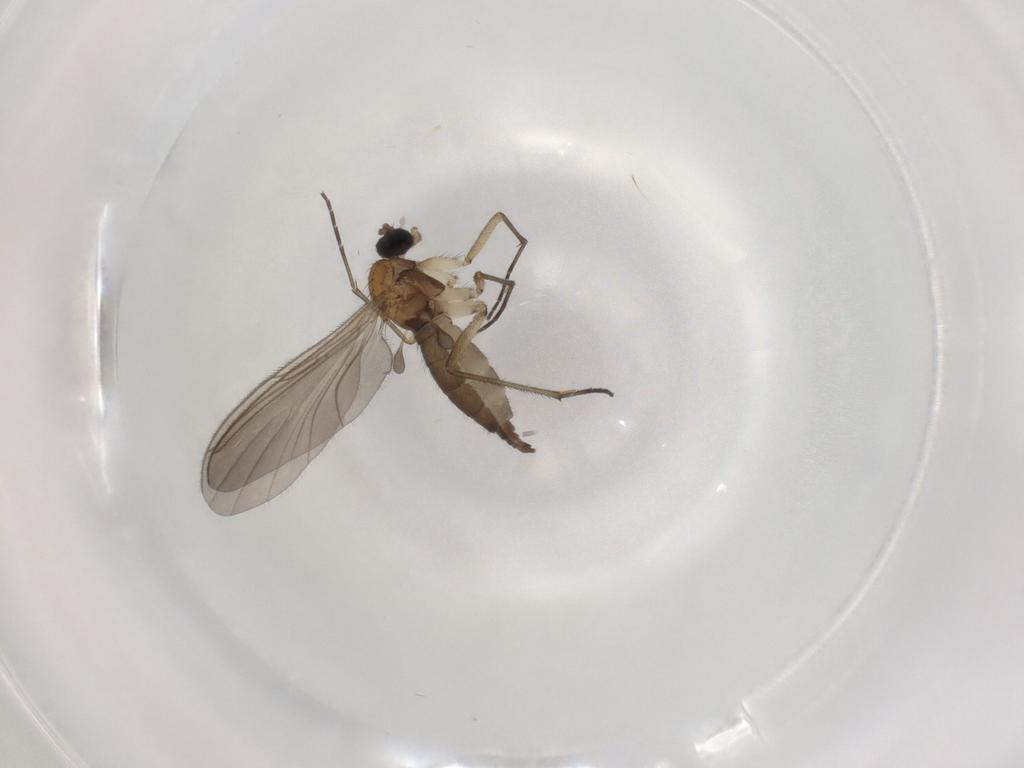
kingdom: Animalia
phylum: Arthropoda
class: Insecta
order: Diptera
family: Sciaridae
